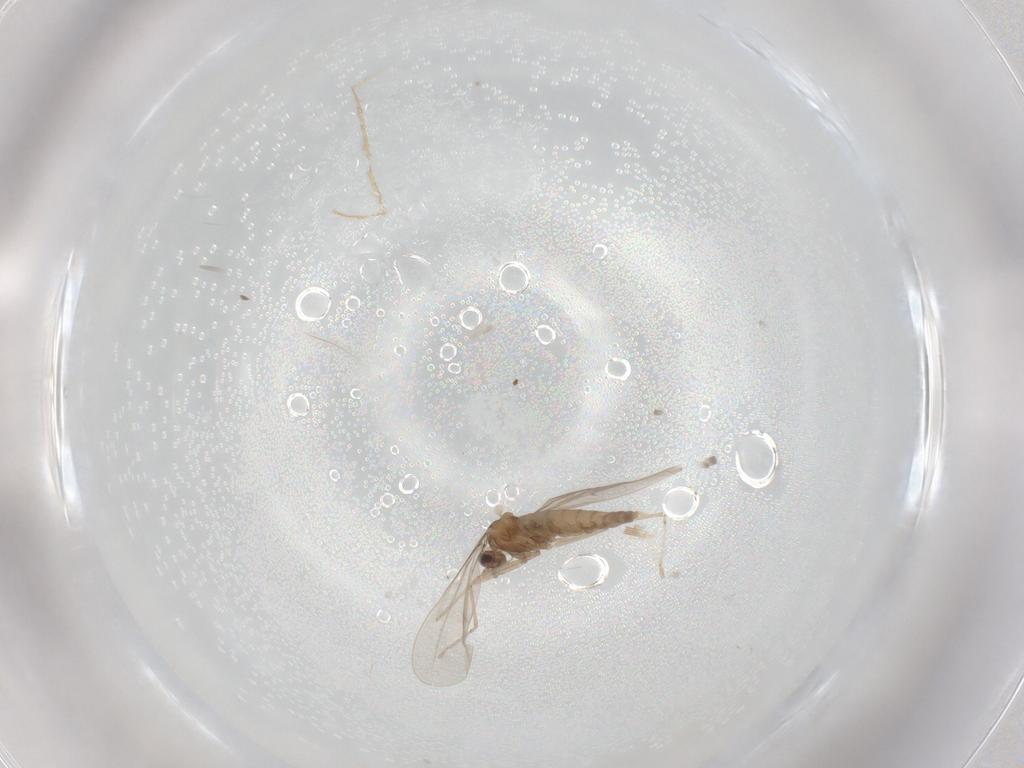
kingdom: Animalia
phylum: Arthropoda
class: Insecta
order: Diptera
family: Cecidomyiidae
